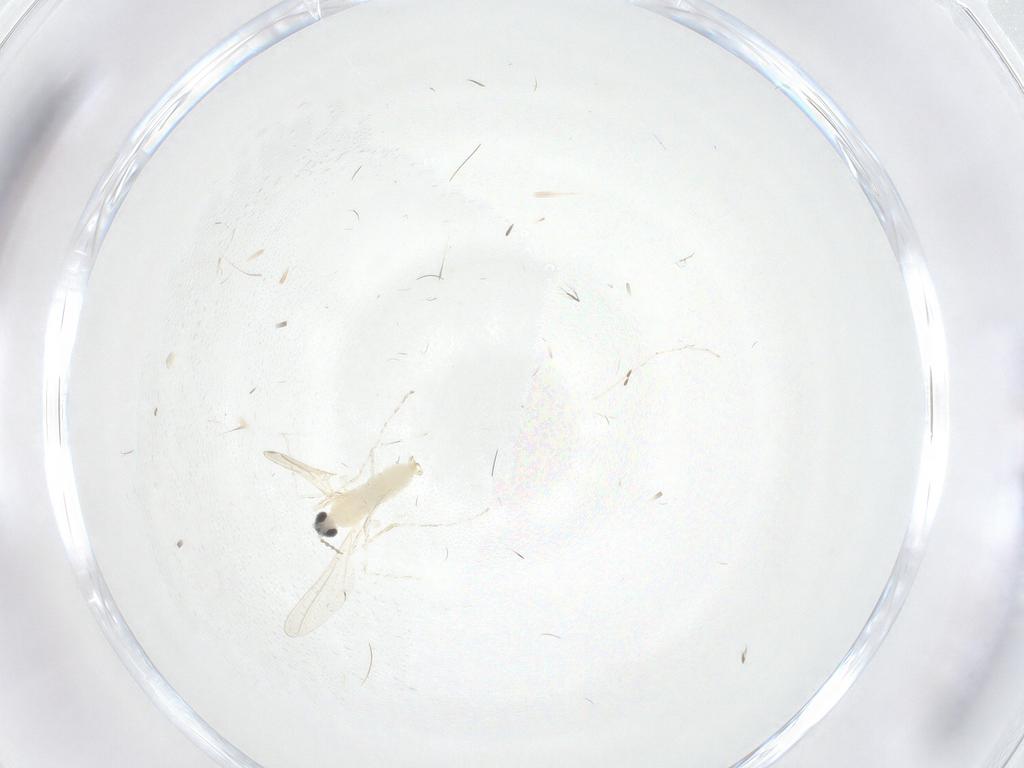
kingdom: Animalia
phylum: Arthropoda
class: Insecta
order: Diptera
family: Cecidomyiidae
